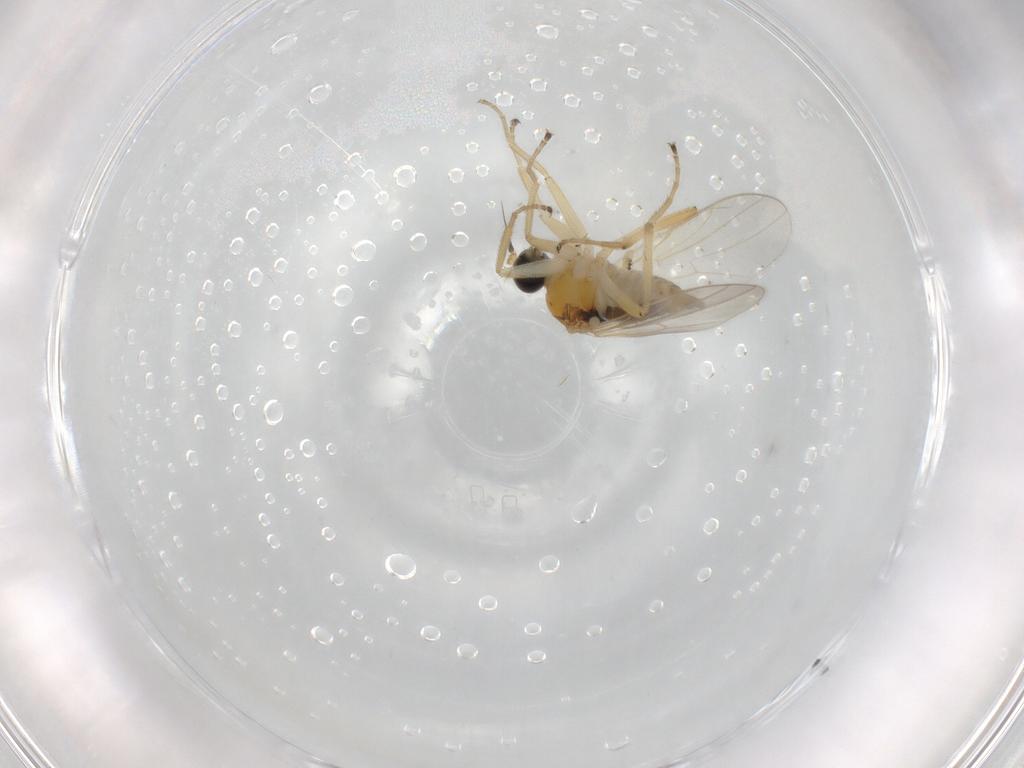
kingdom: Animalia
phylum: Arthropoda
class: Insecta
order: Diptera
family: Hybotidae
